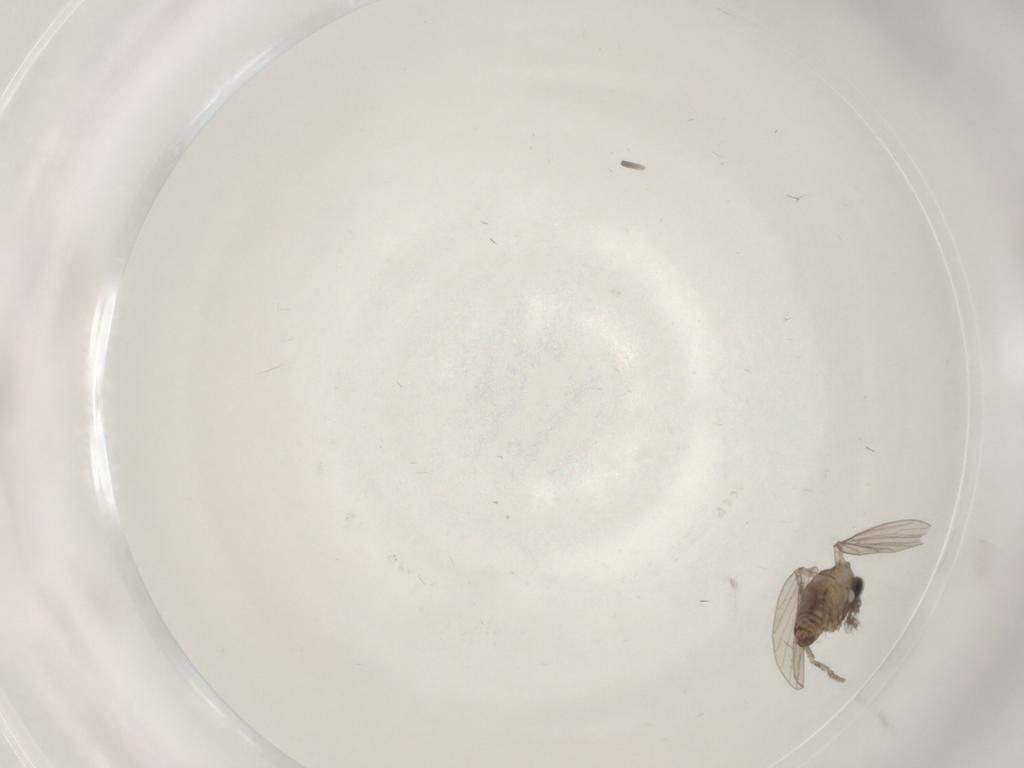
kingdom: Animalia
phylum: Arthropoda
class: Insecta
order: Diptera
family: Psychodidae
